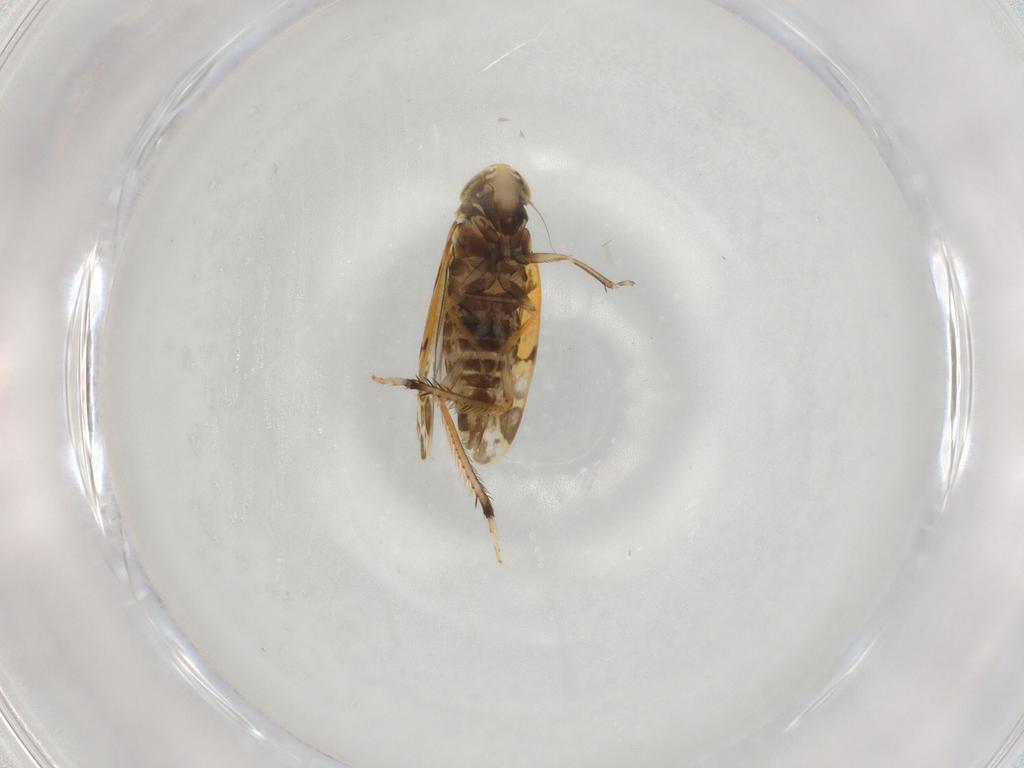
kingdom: Animalia
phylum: Arthropoda
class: Insecta
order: Hemiptera
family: Cicadellidae
